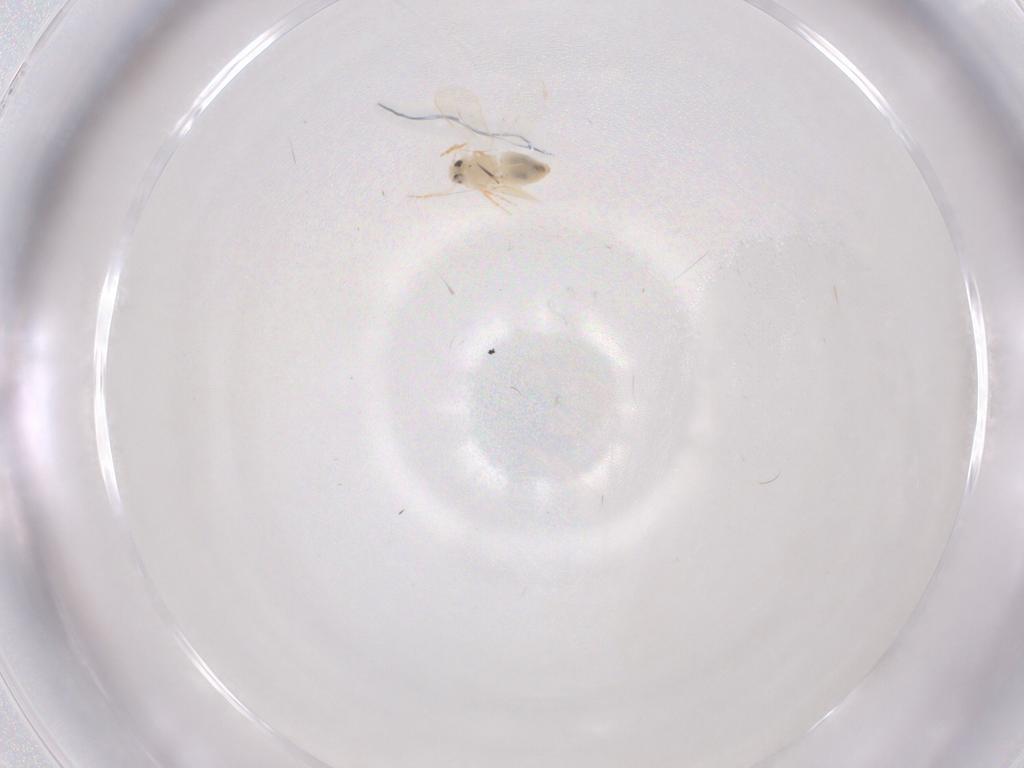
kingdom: Animalia
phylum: Arthropoda
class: Insecta
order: Hemiptera
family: Aleyrodidae
